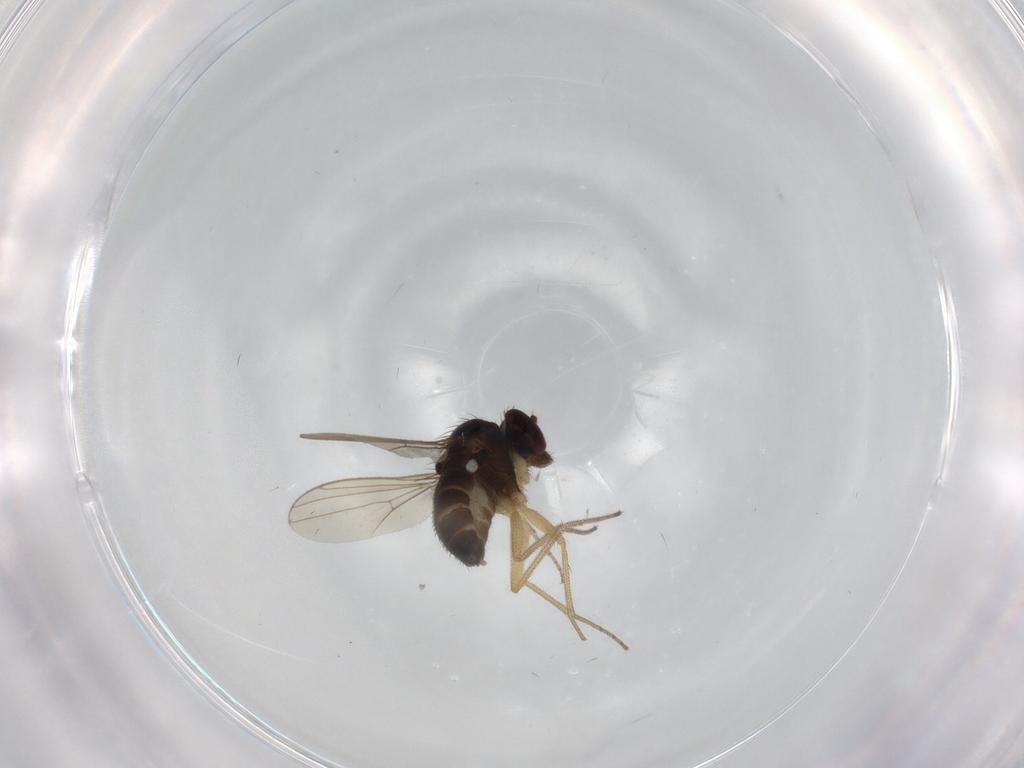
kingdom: Animalia
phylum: Arthropoda
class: Insecta
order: Diptera
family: Dolichopodidae
